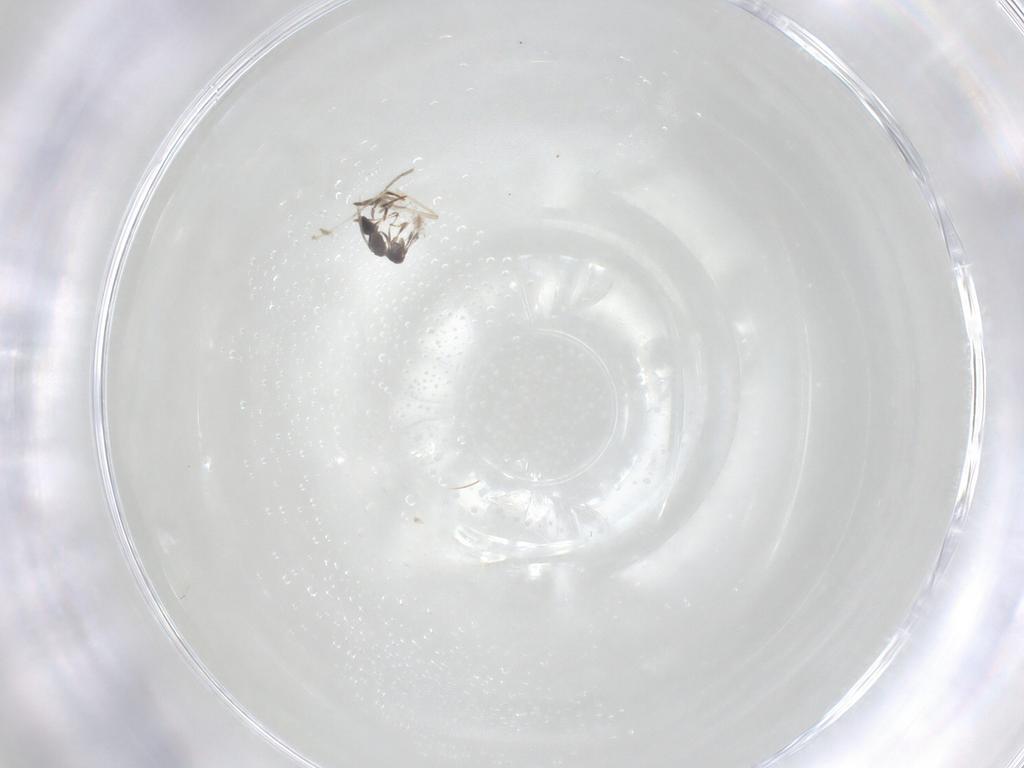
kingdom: Animalia
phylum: Arthropoda
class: Insecta
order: Hymenoptera
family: Mymaridae
